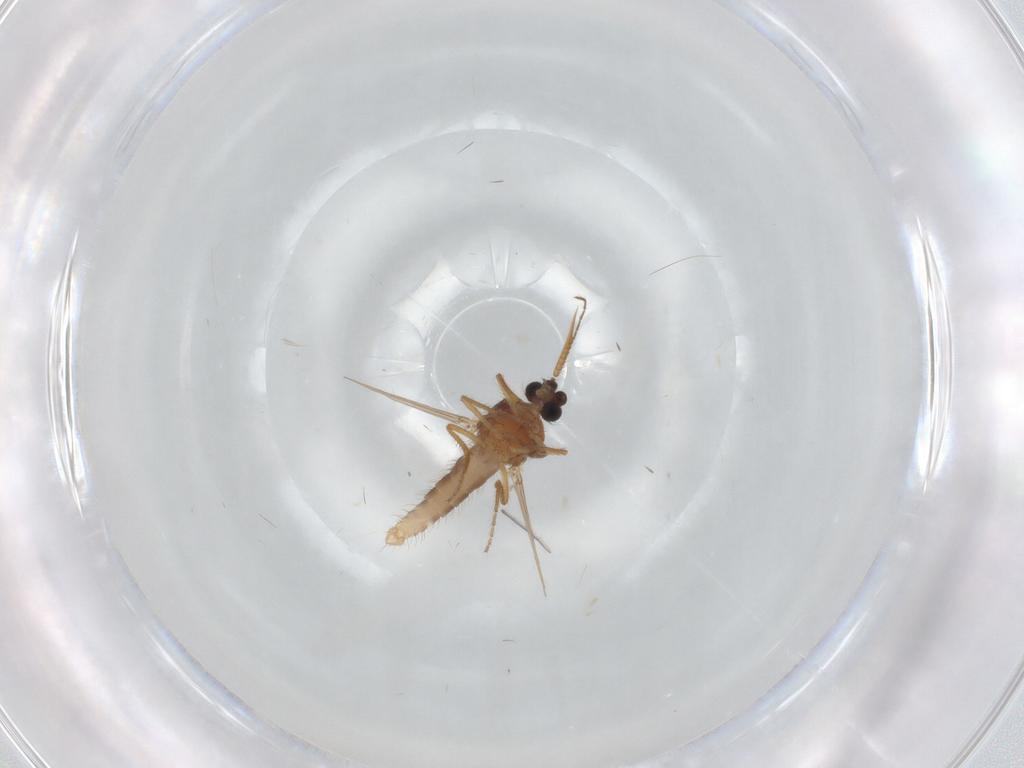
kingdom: Animalia
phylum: Arthropoda
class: Insecta
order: Diptera
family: Ceratopogonidae
